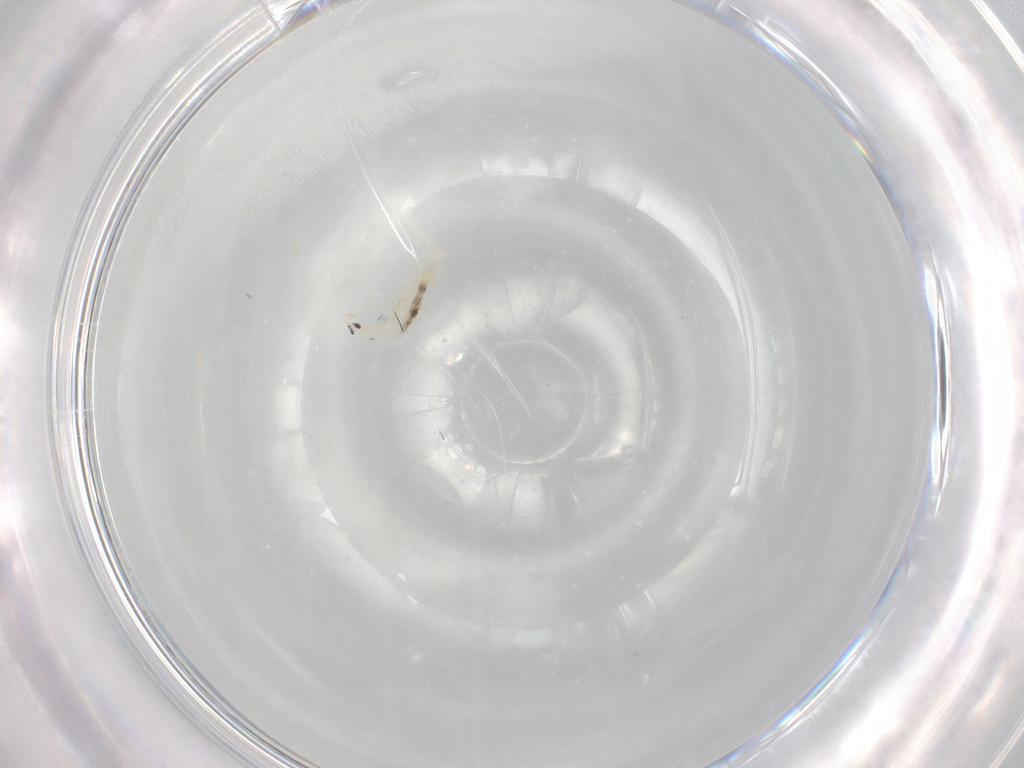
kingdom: Animalia
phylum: Arthropoda
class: Collembola
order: Entomobryomorpha
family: Entomobryidae
